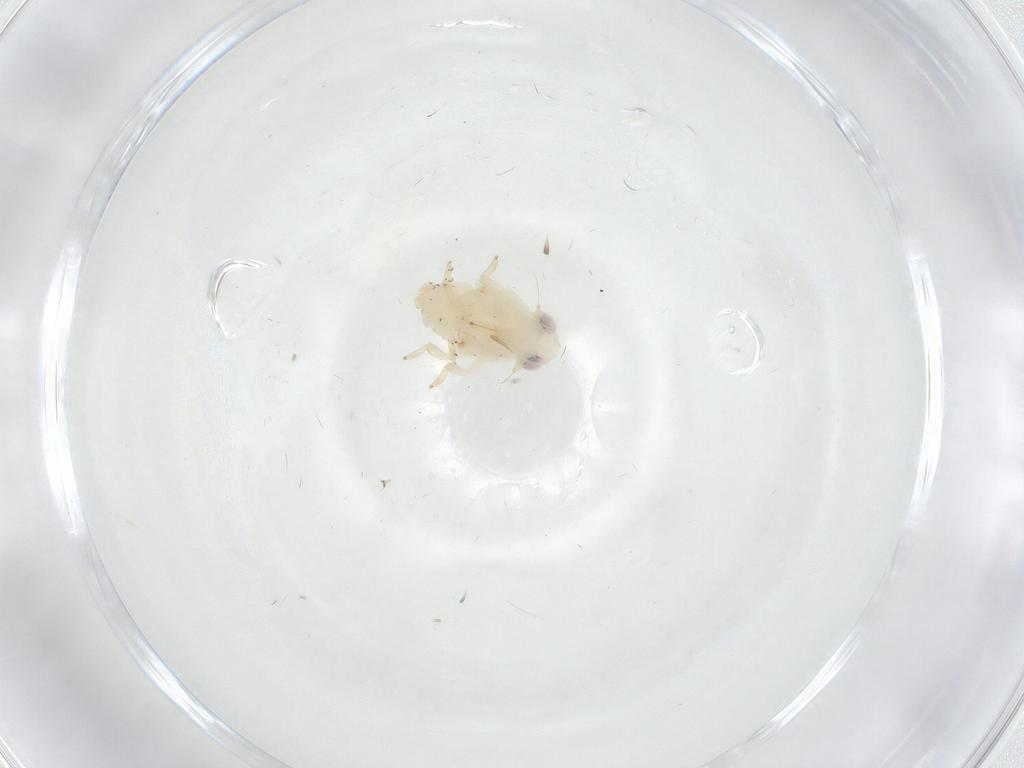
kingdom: Animalia
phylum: Arthropoda
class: Insecta
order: Hemiptera
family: Nogodinidae
